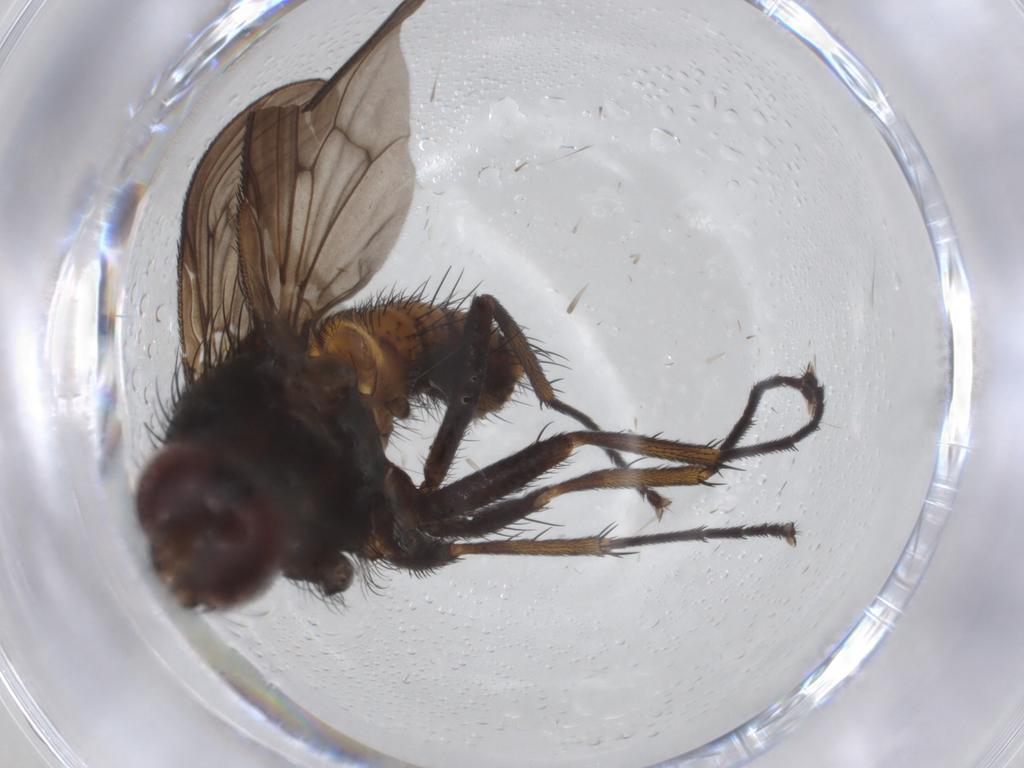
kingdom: Animalia
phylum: Arthropoda
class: Insecta
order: Diptera
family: Muscidae
